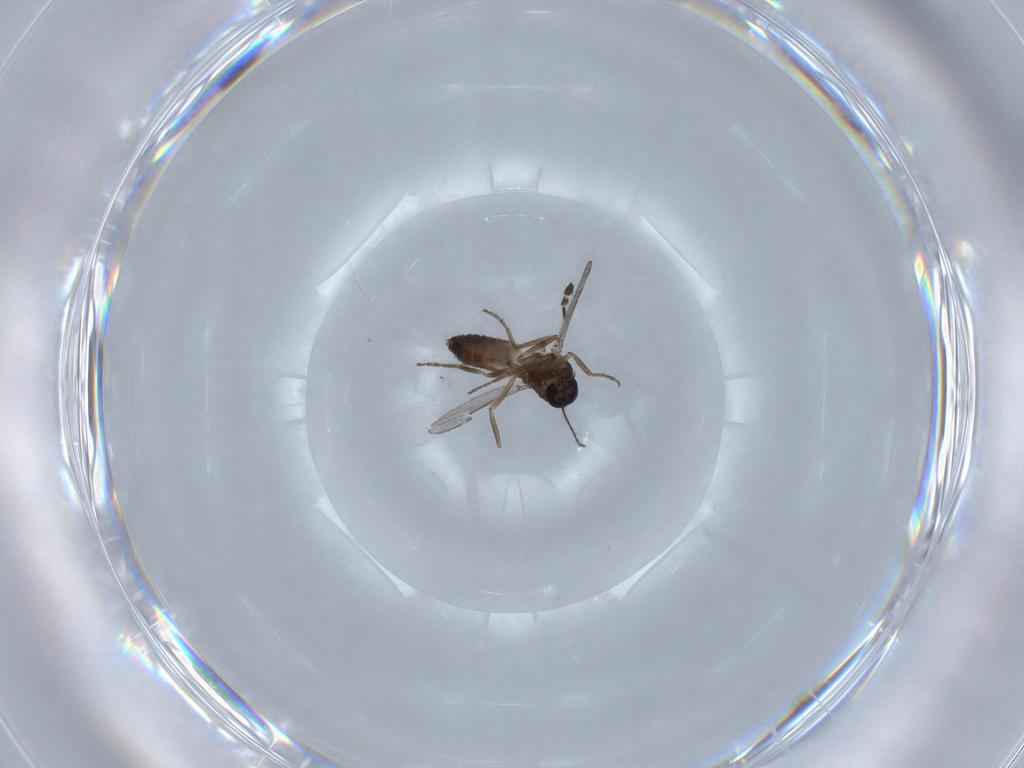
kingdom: Animalia
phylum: Arthropoda
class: Insecta
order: Diptera
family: Limoniidae
